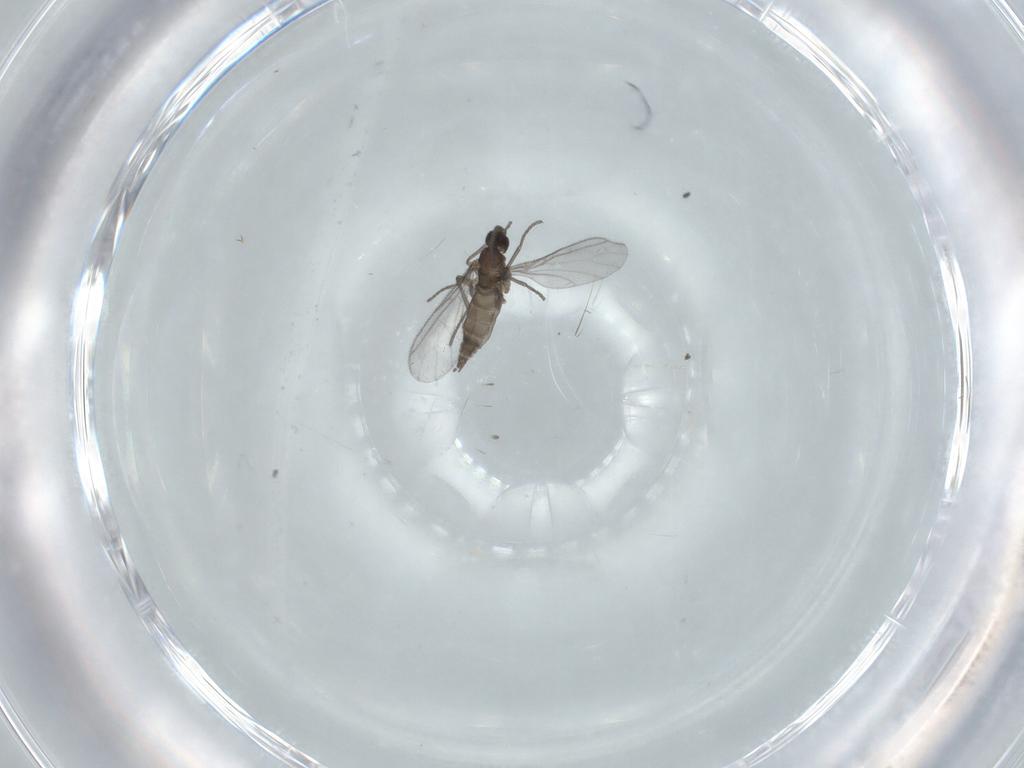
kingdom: Animalia
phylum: Arthropoda
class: Insecta
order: Diptera
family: Phoridae
